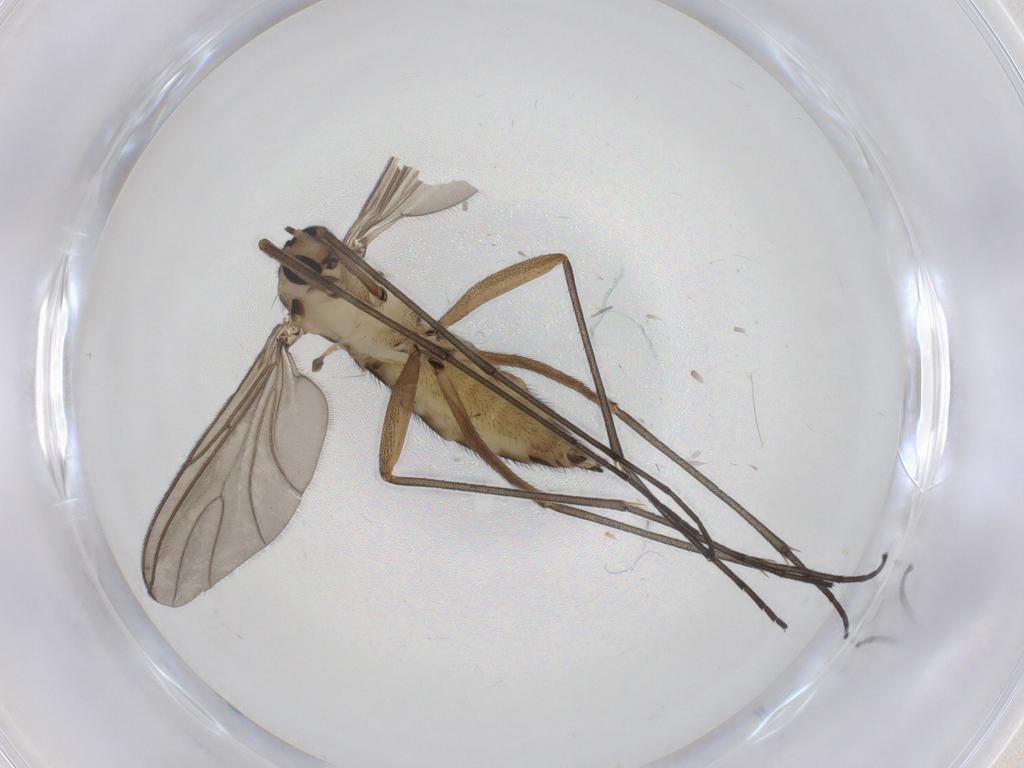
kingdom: Animalia
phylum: Arthropoda
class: Insecta
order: Diptera
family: Sciaridae
